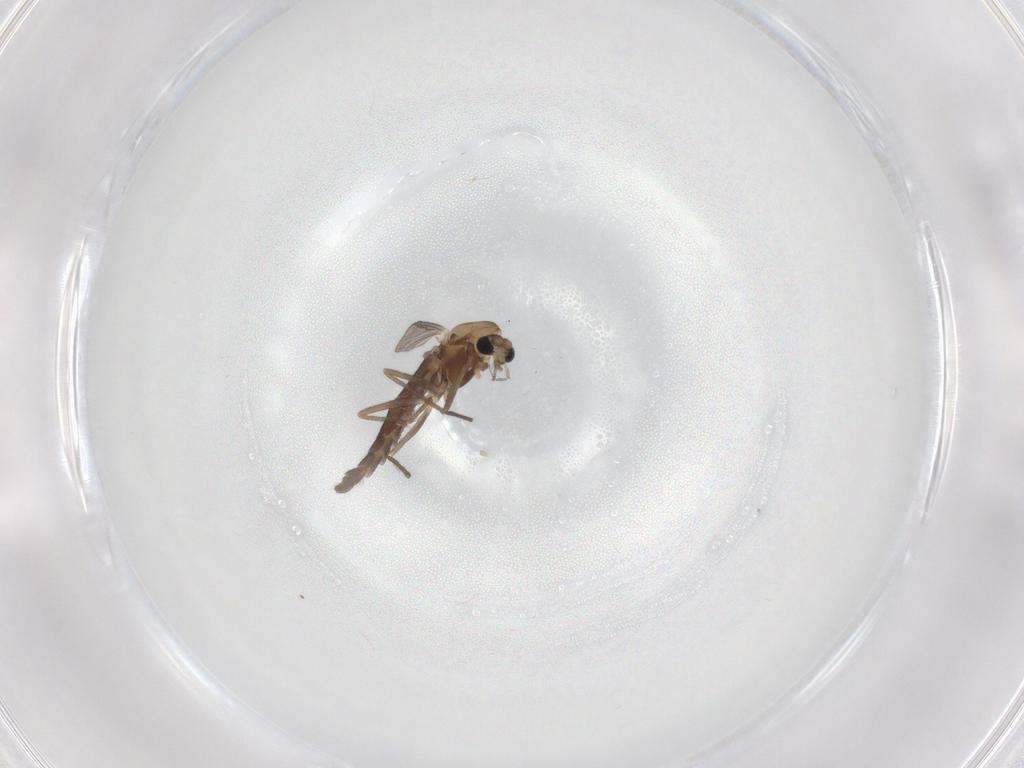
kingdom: Animalia
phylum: Arthropoda
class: Insecta
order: Diptera
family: Chironomidae
